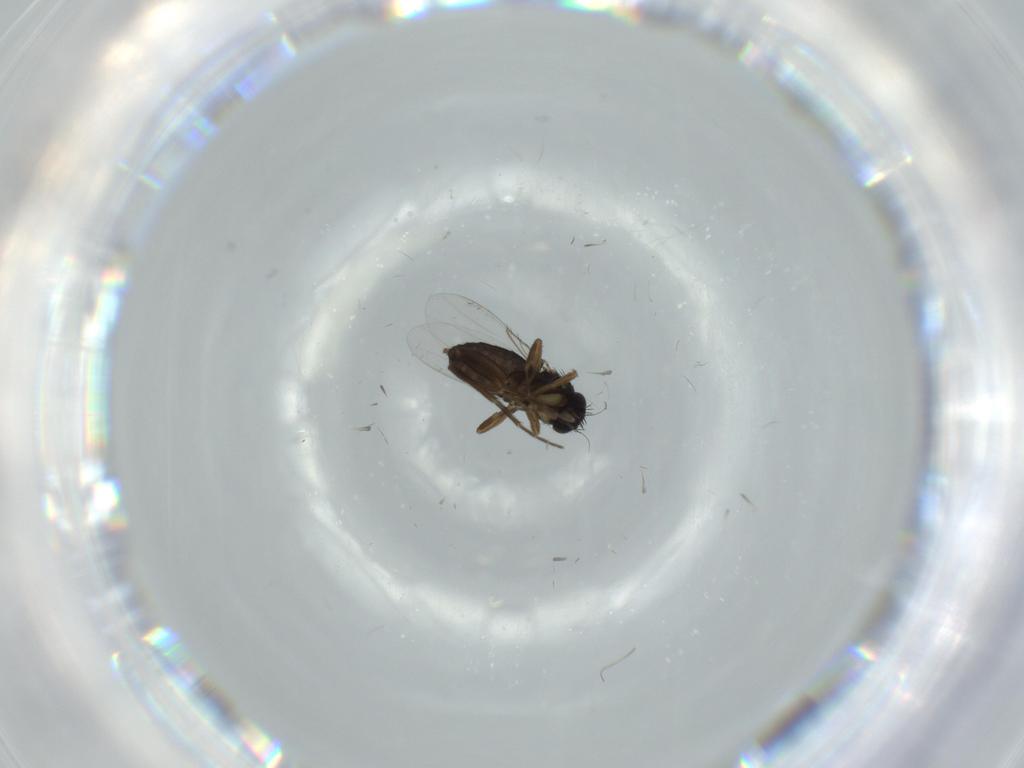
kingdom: Animalia
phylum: Arthropoda
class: Insecta
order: Diptera
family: Phoridae
